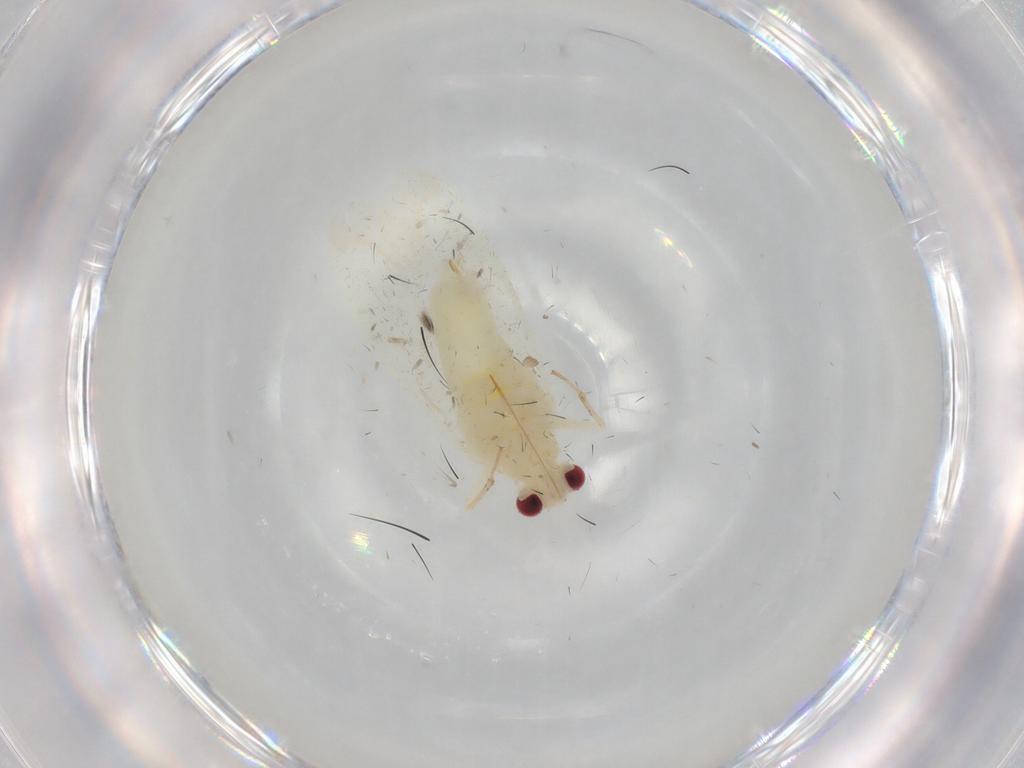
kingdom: Animalia
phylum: Arthropoda
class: Insecta
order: Hemiptera
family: Miridae
